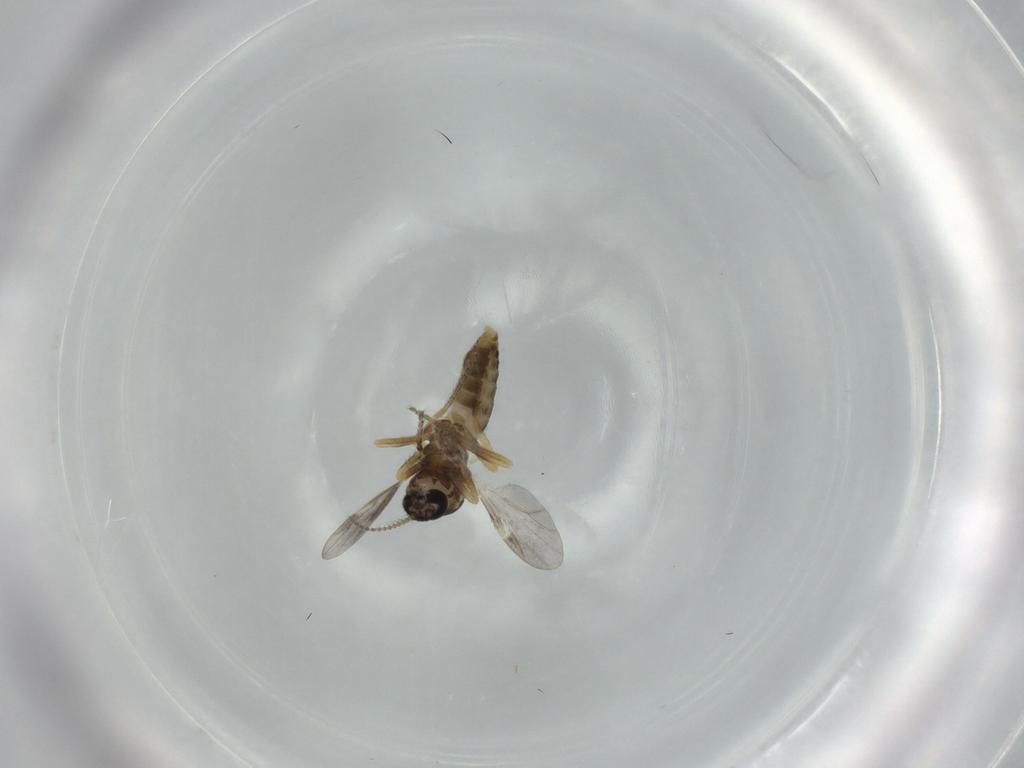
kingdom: Animalia
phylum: Arthropoda
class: Insecta
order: Diptera
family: Ceratopogonidae
